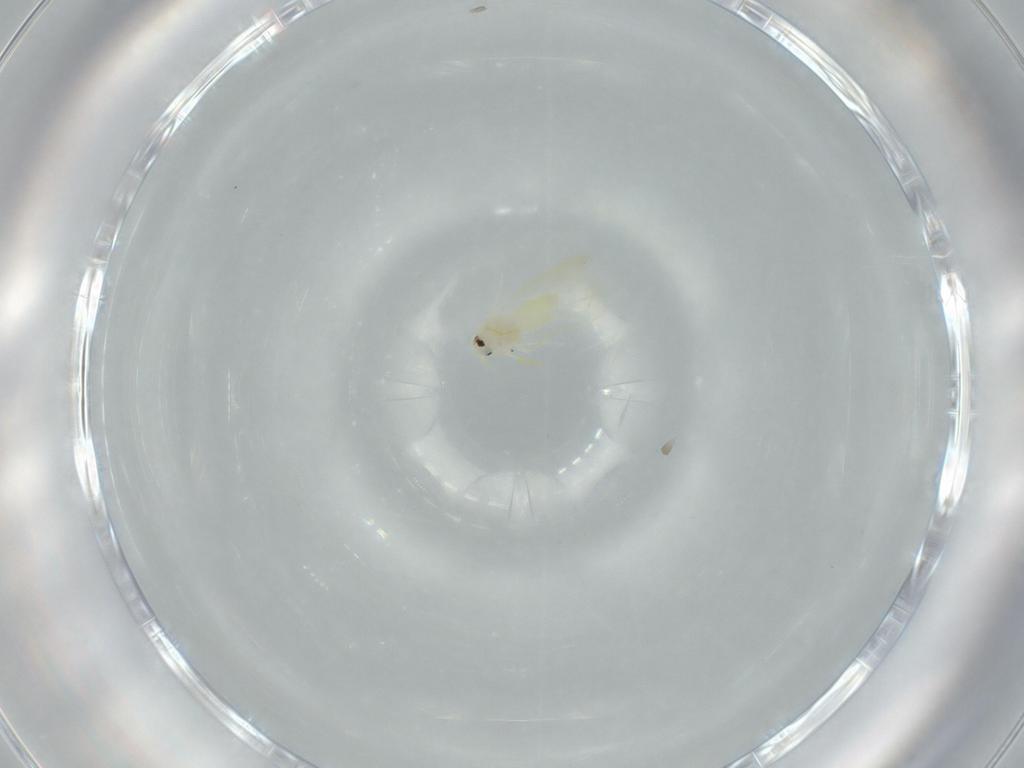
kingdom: Animalia
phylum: Arthropoda
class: Insecta
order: Hemiptera
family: Aleyrodidae
